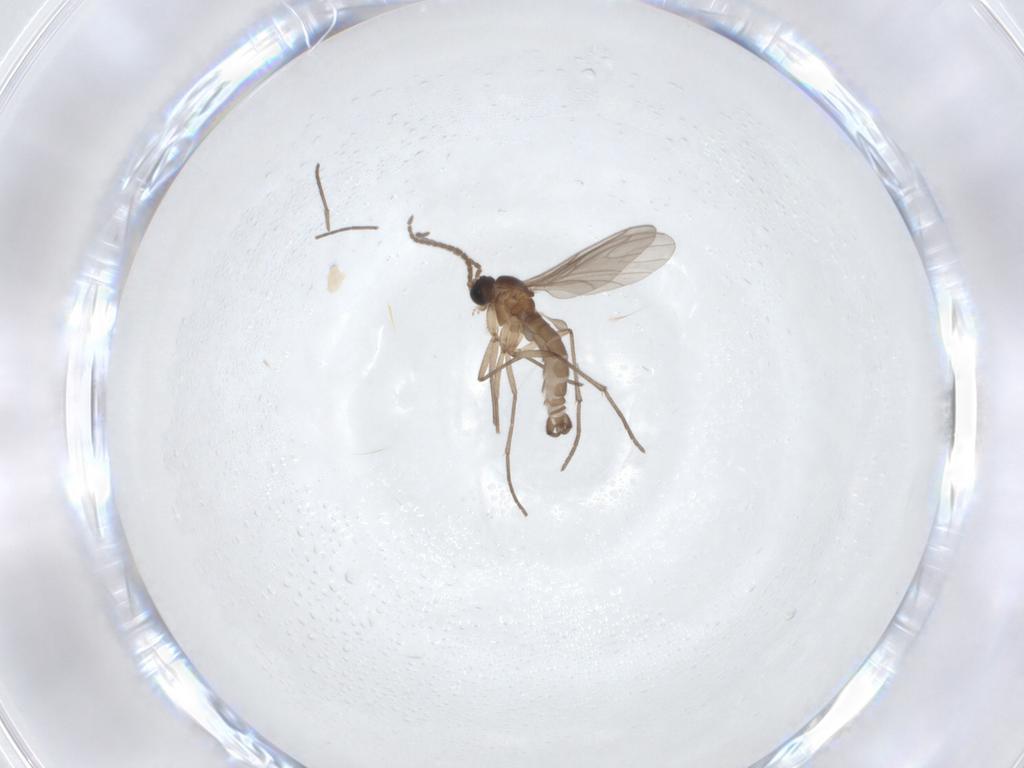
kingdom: Animalia
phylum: Arthropoda
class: Insecta
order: Diptera
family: Sciaridae
